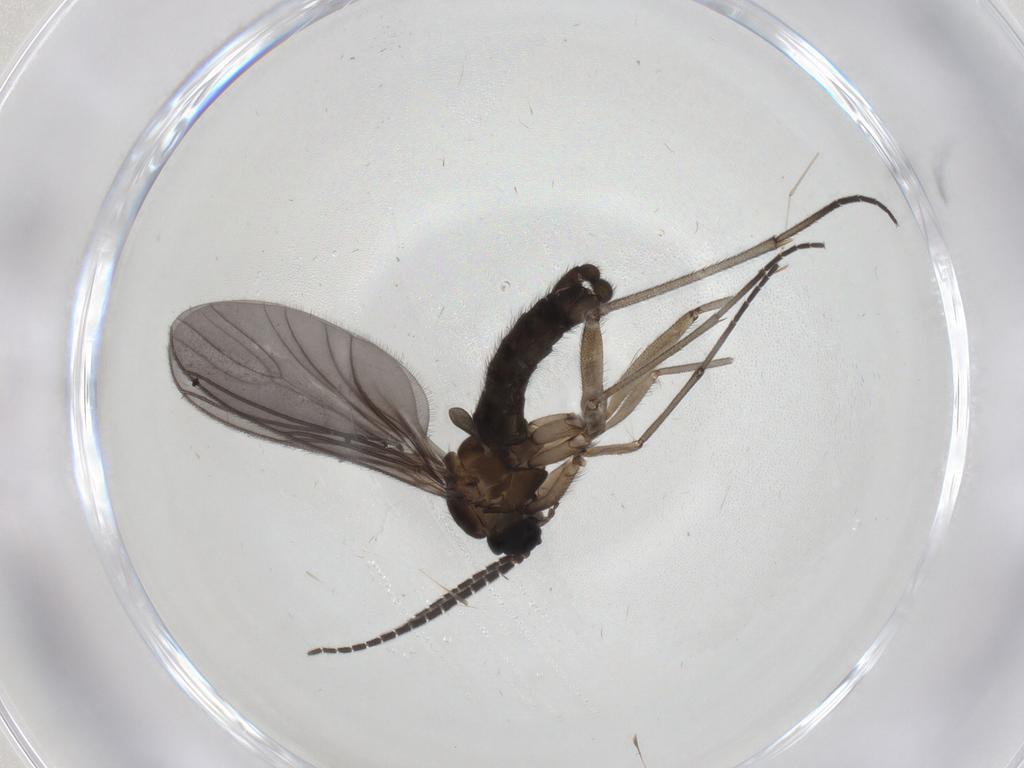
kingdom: Animalia
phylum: Arthropoda
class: Insecta
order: Diptera
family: Sciaridae
